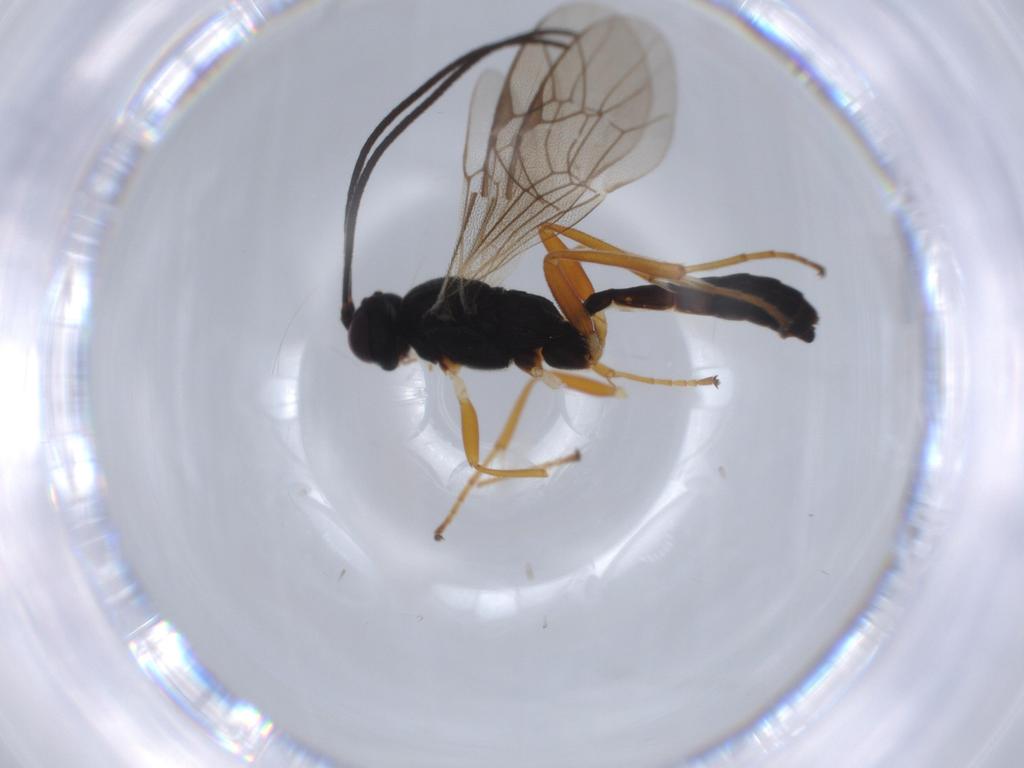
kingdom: Animalia
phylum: Arthropoda
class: Insecta
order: Hymenoptera
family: Ichneumonidae
